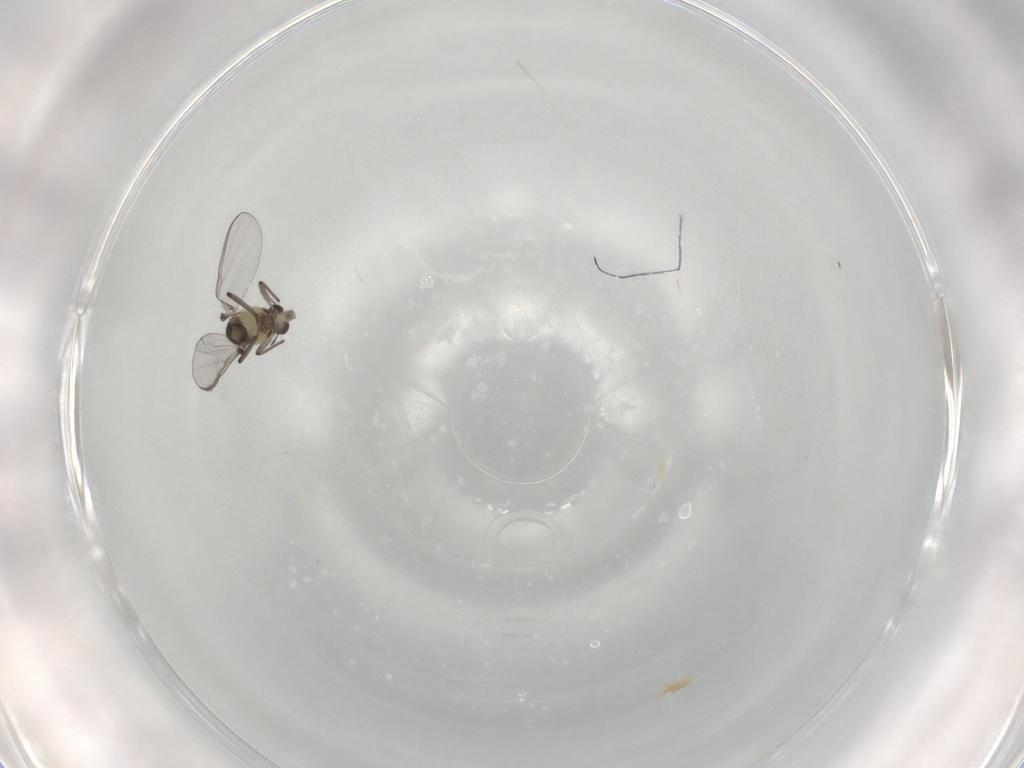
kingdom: Animalia
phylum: Arthropoda
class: Insecta
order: Diptera
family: Chironomidae
